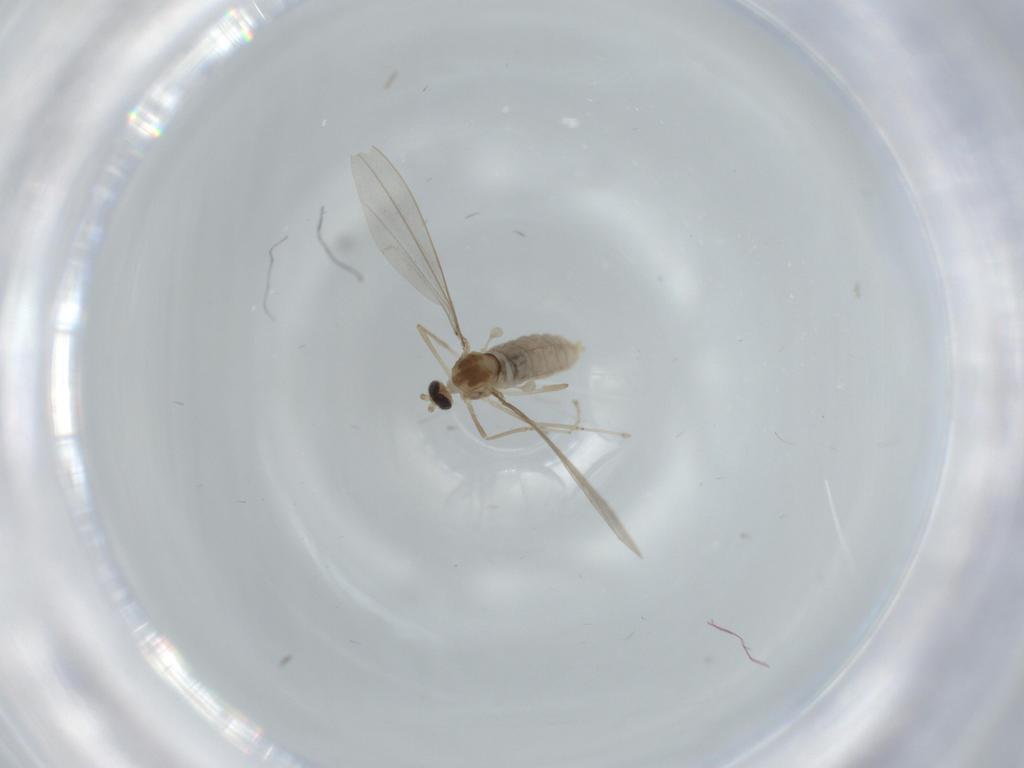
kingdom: Animalia
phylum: Arthropoda
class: Insecta
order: Diptera
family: Cecidomyiidae
